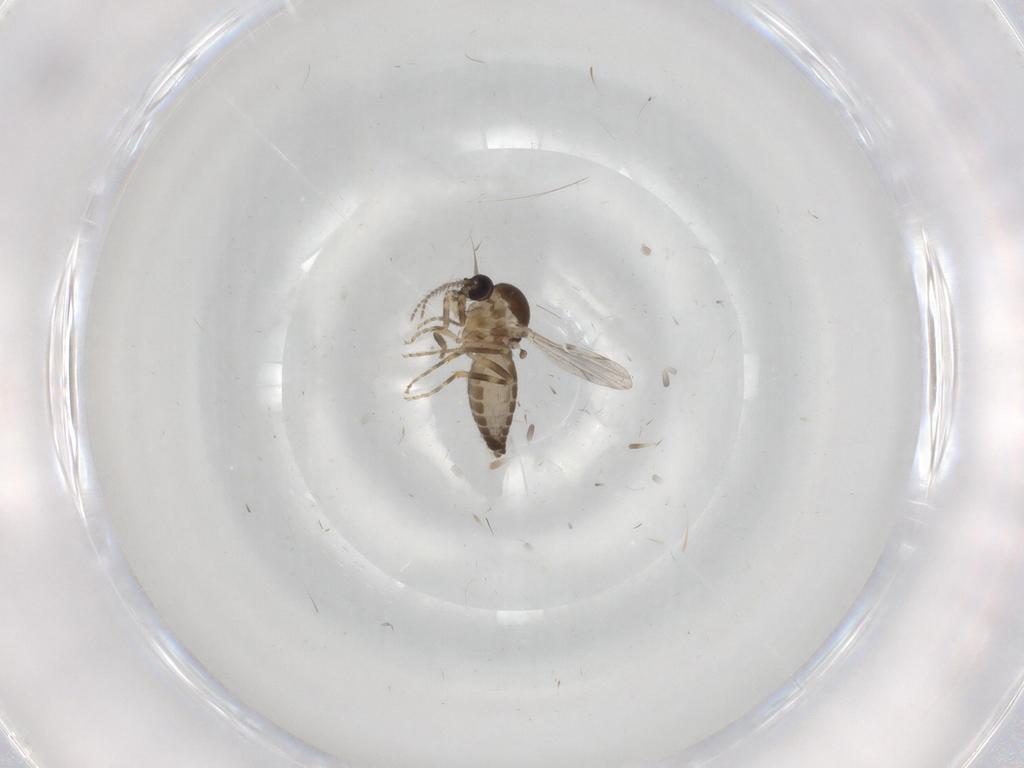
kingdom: Animalia
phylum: Arthropoda
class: Insecta
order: Diptera
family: Ceratopogonidae
